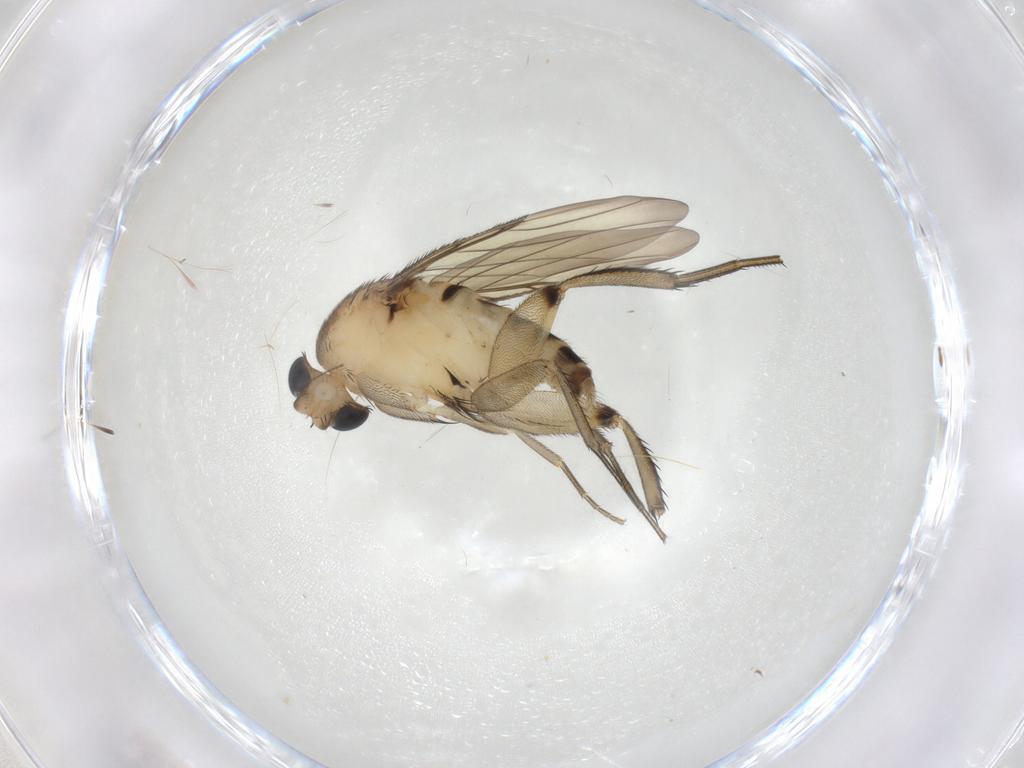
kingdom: Animalia
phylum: Arthropoda
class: Insecta
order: Diptera
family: Phoridae
